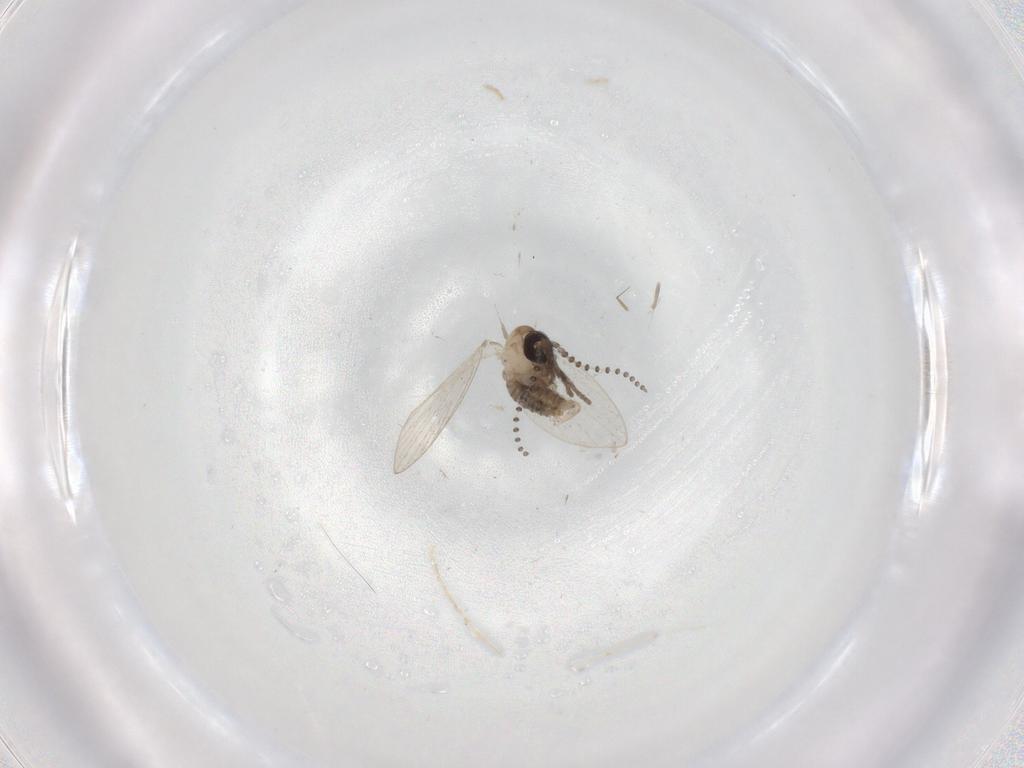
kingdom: Animalia
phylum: Arthropoda
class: Insecta
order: Diptera
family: Psychodidae
